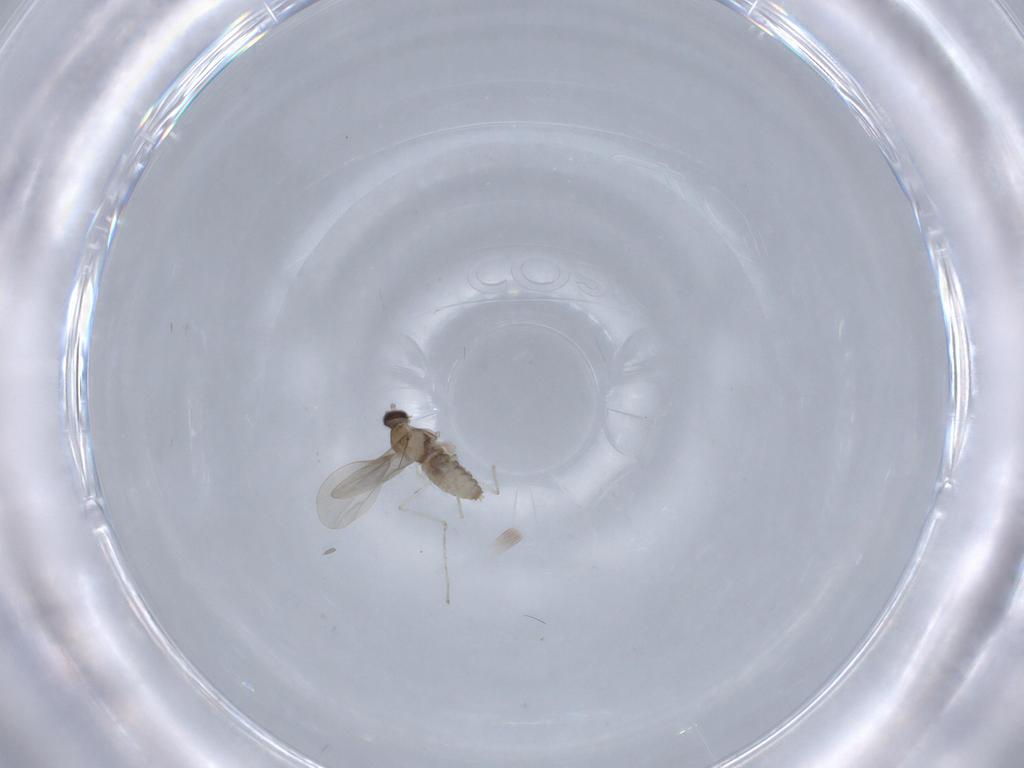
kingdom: Animalia
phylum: Arthropoda
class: Insecta
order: Diptera
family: Cecidomyiidae
